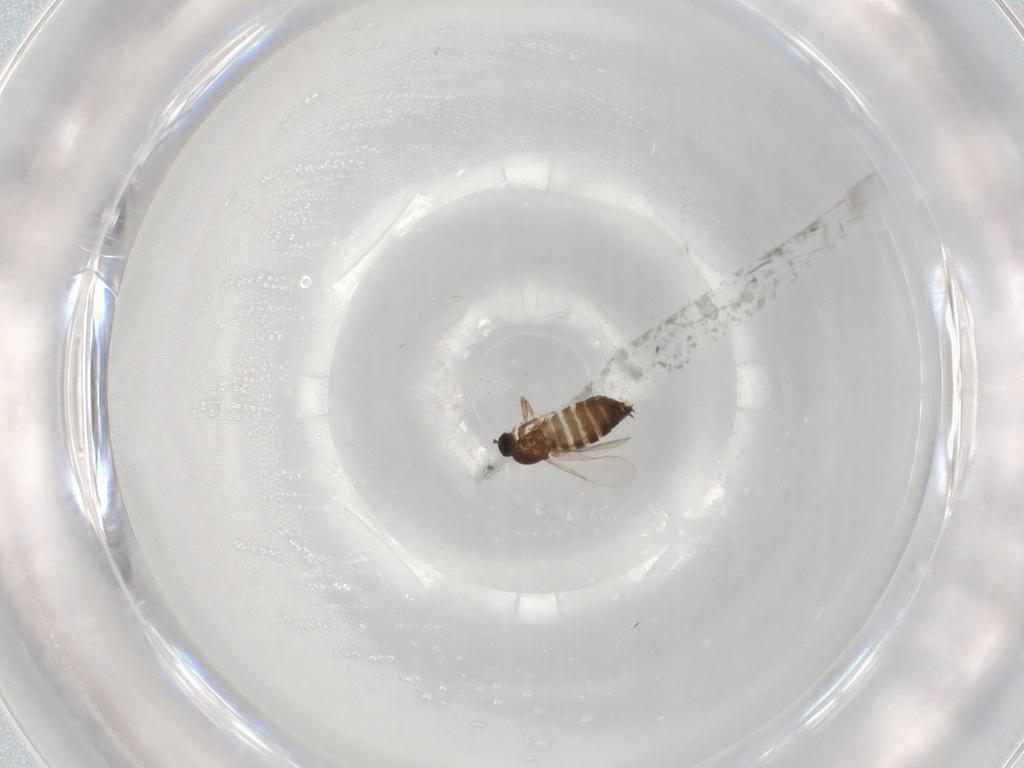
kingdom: Animalia
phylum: Arthropoda
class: Insecta
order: Diptera
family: Scatopsidae
